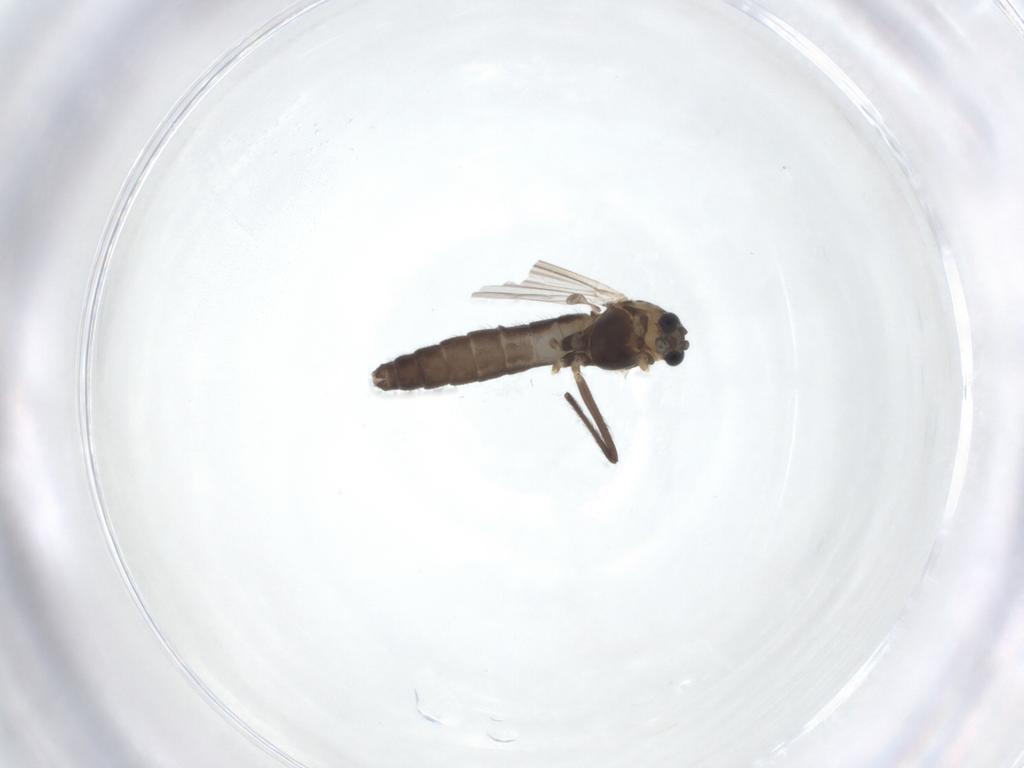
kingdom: Animalia
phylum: Arthropoda
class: Insecta
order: Diptera
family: Chironomidae
